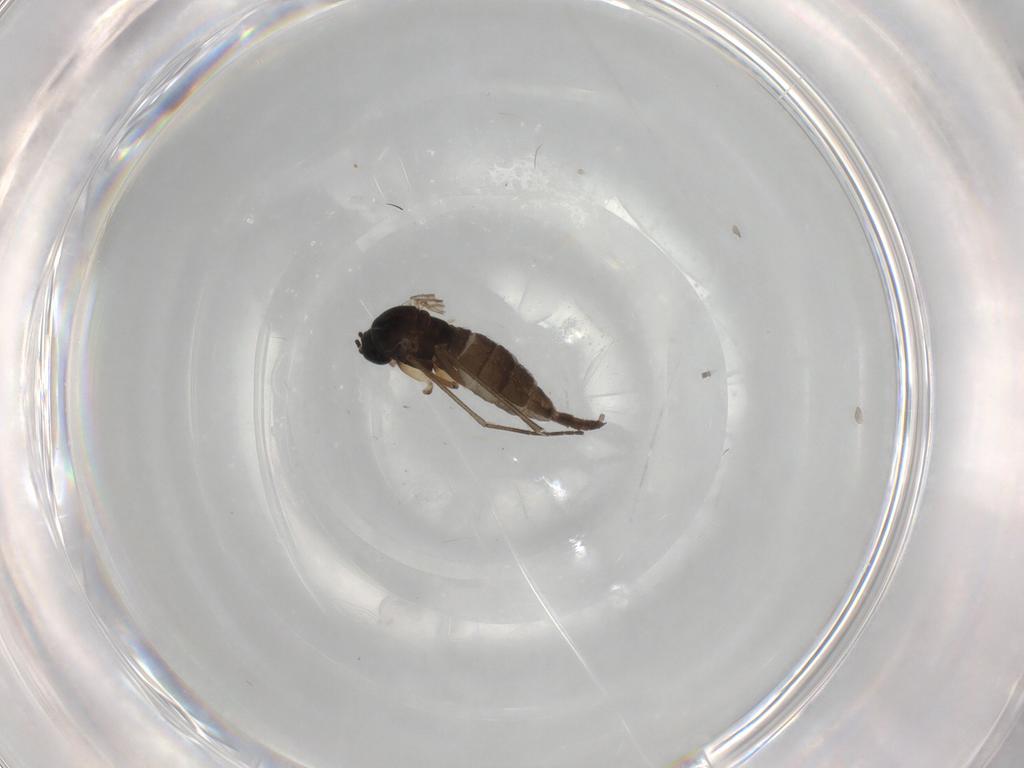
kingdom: Animalia
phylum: Arthropoda
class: Insecta
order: Diptera
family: Sciaridae
